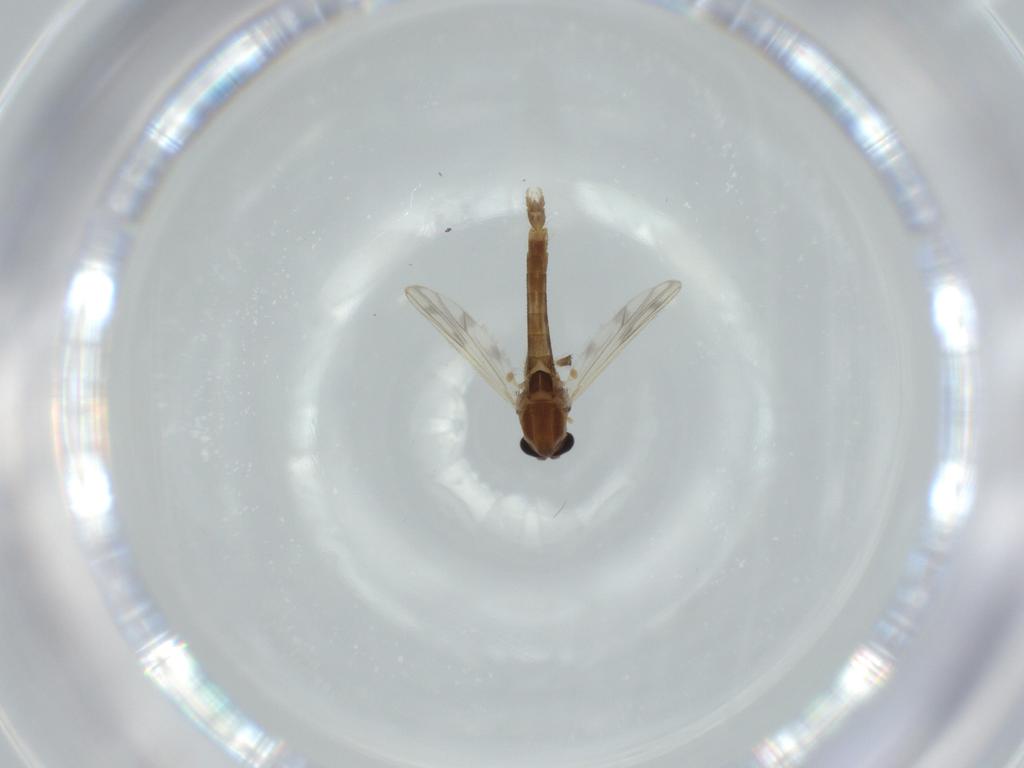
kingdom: Animalia
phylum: Arthropoda
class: Insecta
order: Diptera
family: Chironomidae
